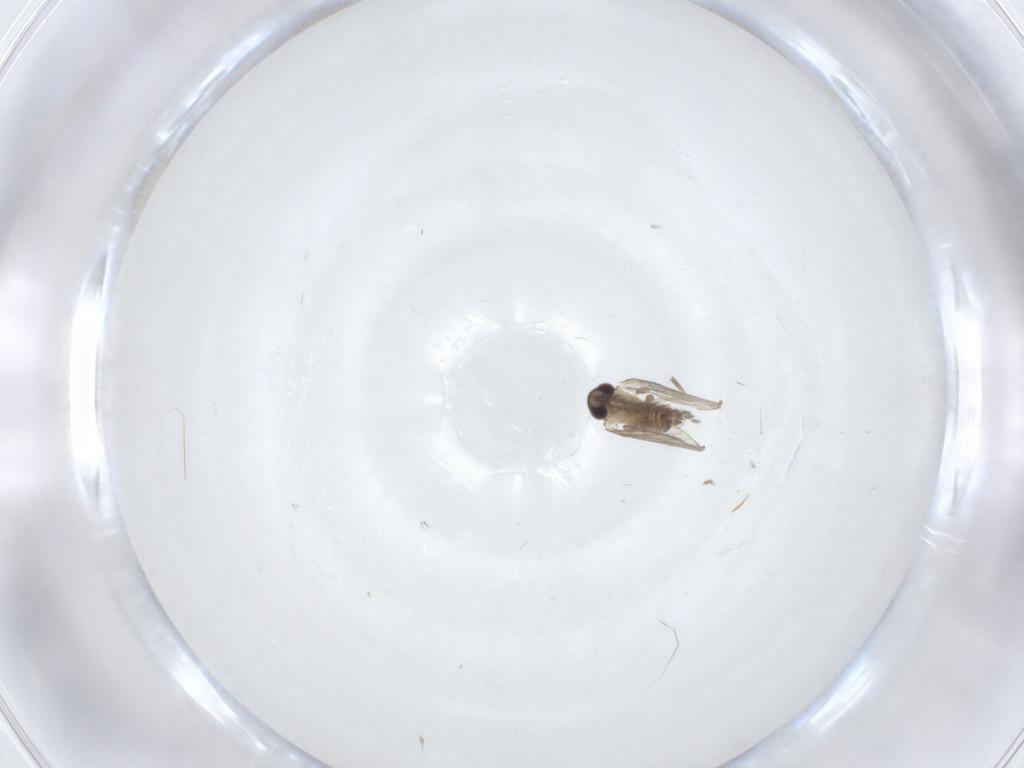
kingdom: Animalia
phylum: Arthropoda
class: Insecta
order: Diptera
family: Psychodidae
